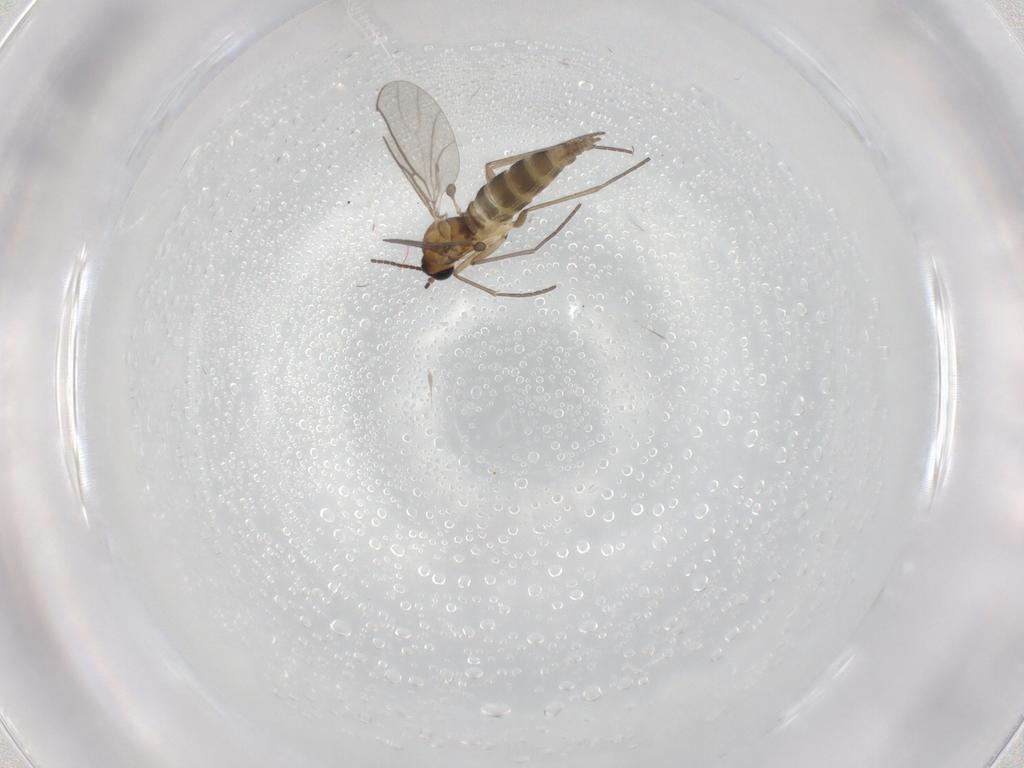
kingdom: Animalia
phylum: Arthropoda
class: Insecta
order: Diptera
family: Sciaridae
